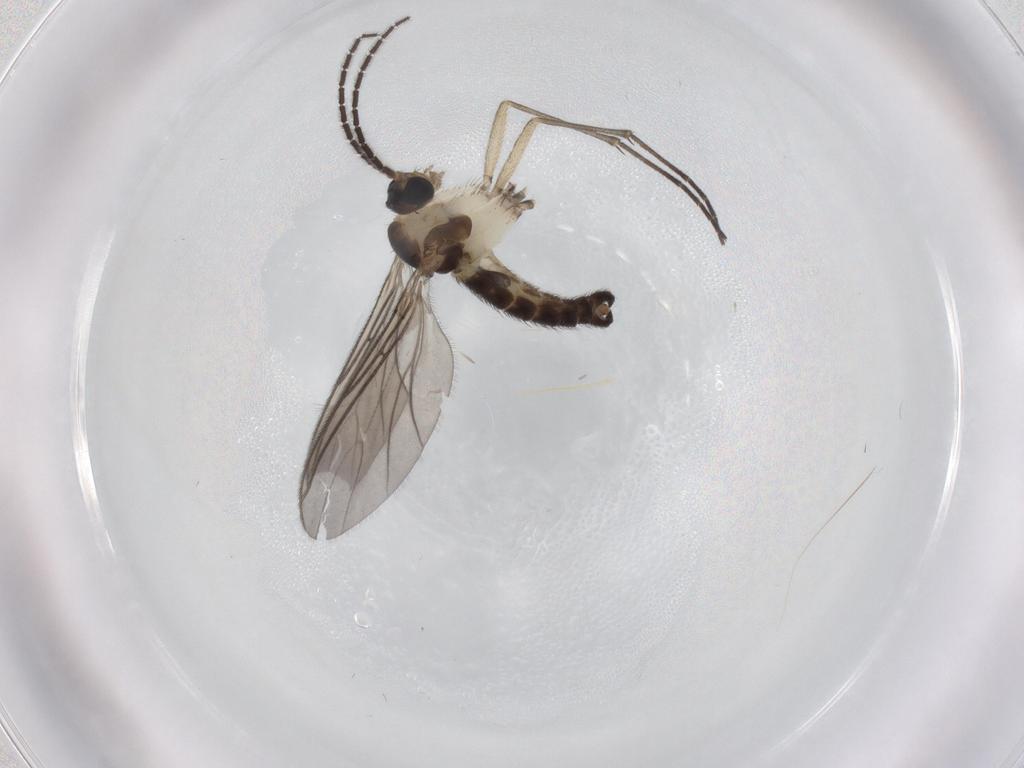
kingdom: Animalia
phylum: Arthropoda
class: Insecta
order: Diptera
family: Sciaridae
